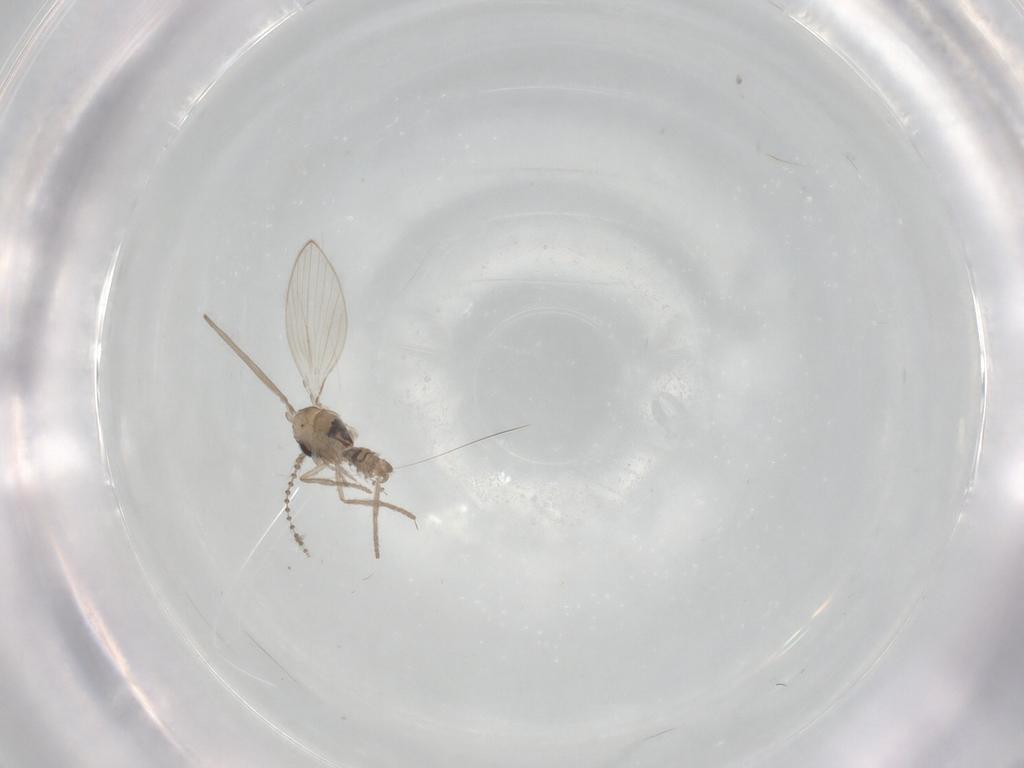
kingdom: Animalia
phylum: Arthropoda
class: Insecta
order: Diptera
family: Psychodidae
